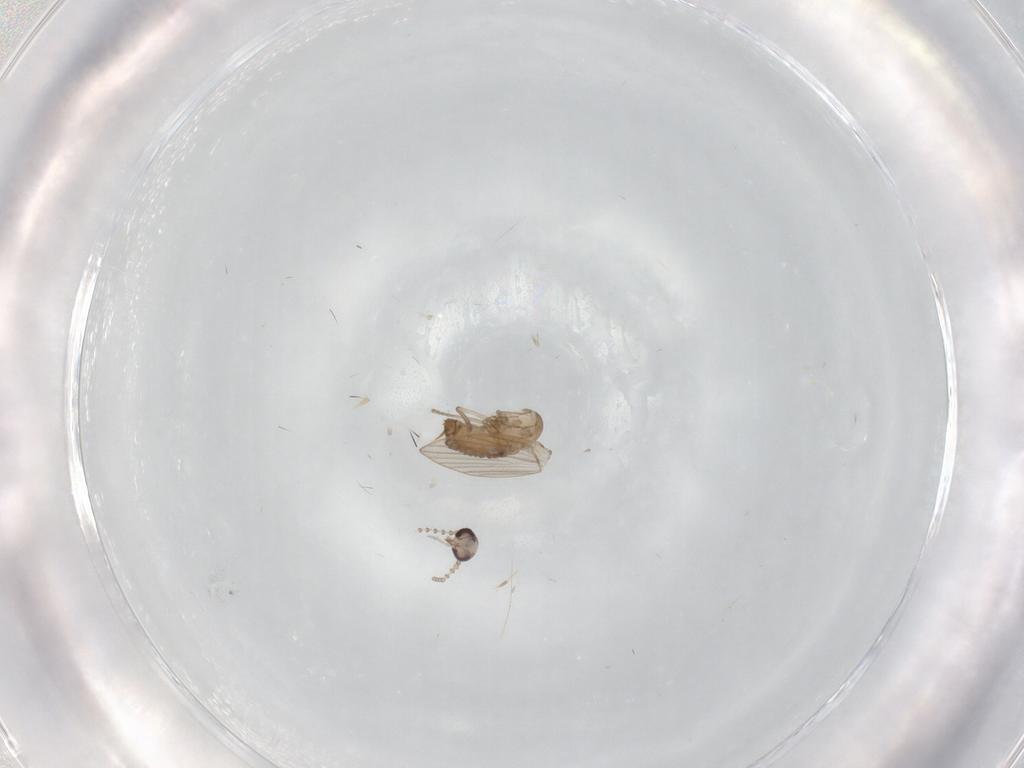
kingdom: Animalia
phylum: Arthropoda
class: Insecta
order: Diptera
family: Psychodidae
